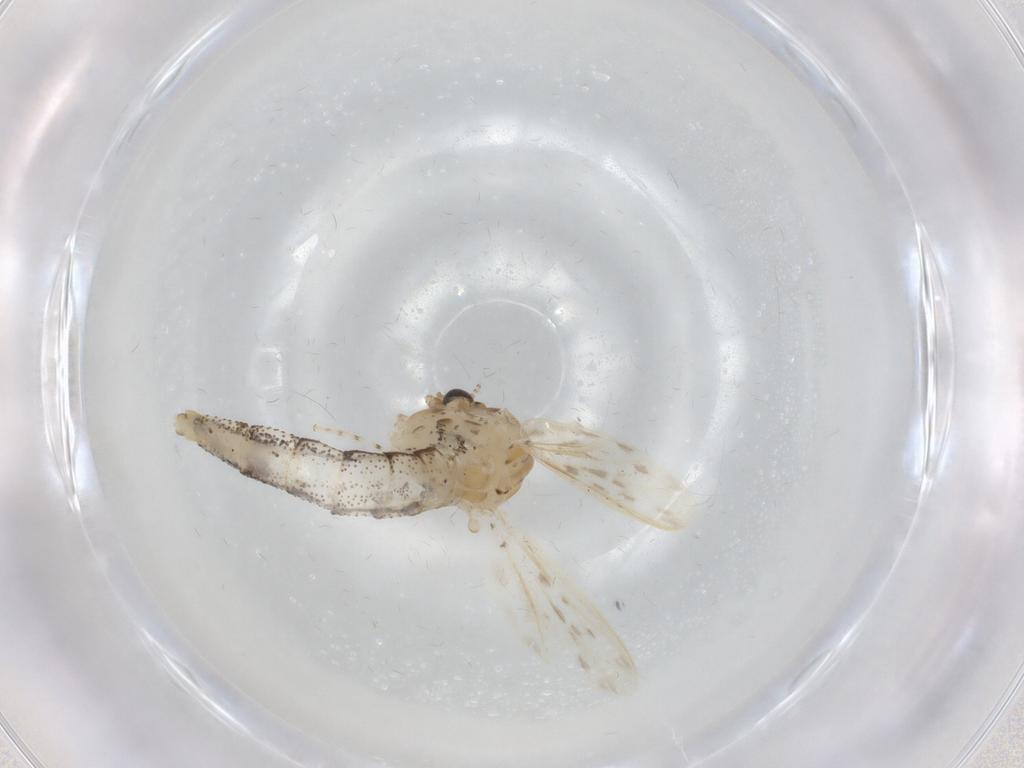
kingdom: Animalia
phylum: Arthropoda
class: Insecta
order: Diptera
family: Chaoboridae
